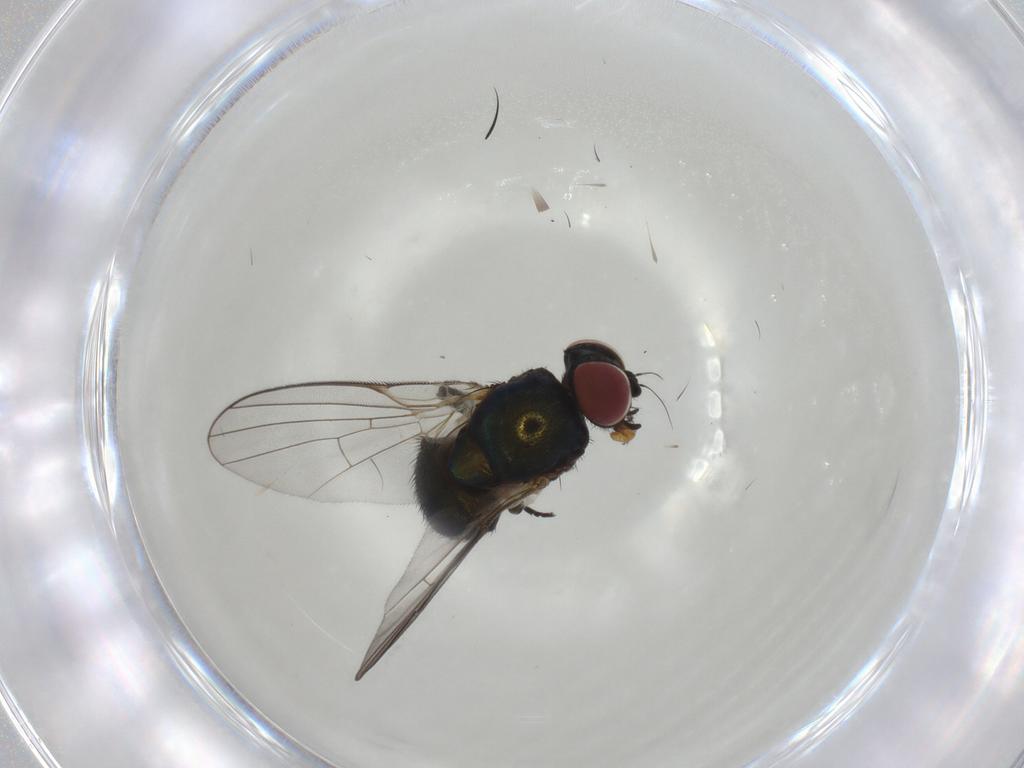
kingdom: Animalia
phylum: Arthropoda
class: Insecta
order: Diptera
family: Agromyzidae
